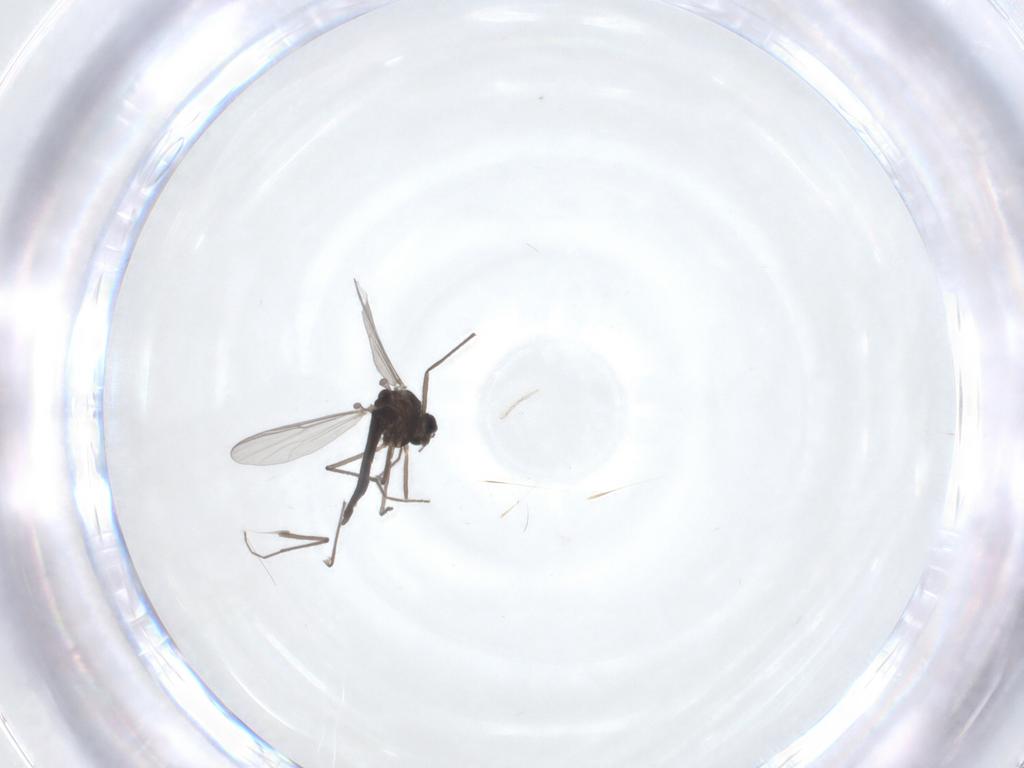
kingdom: Animalia
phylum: Arthropoda
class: Insecta
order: Diptera
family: Chironomidae
